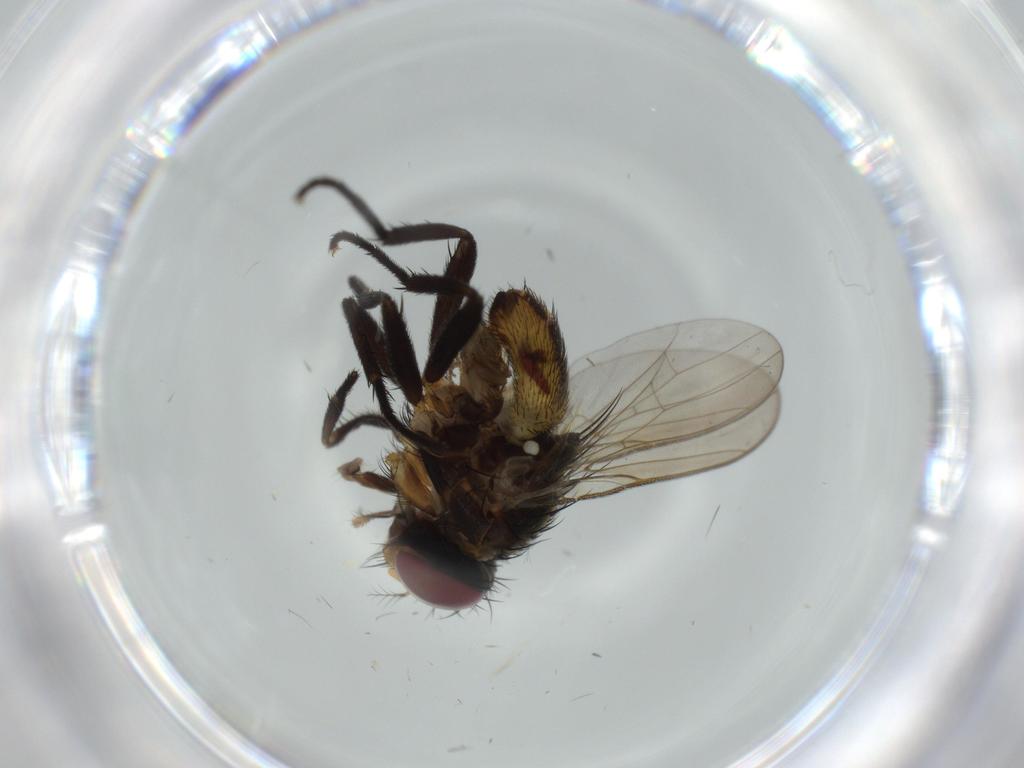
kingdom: Animalia
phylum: Arthropoda
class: Insecta
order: Diptera
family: Anthomyiidae
